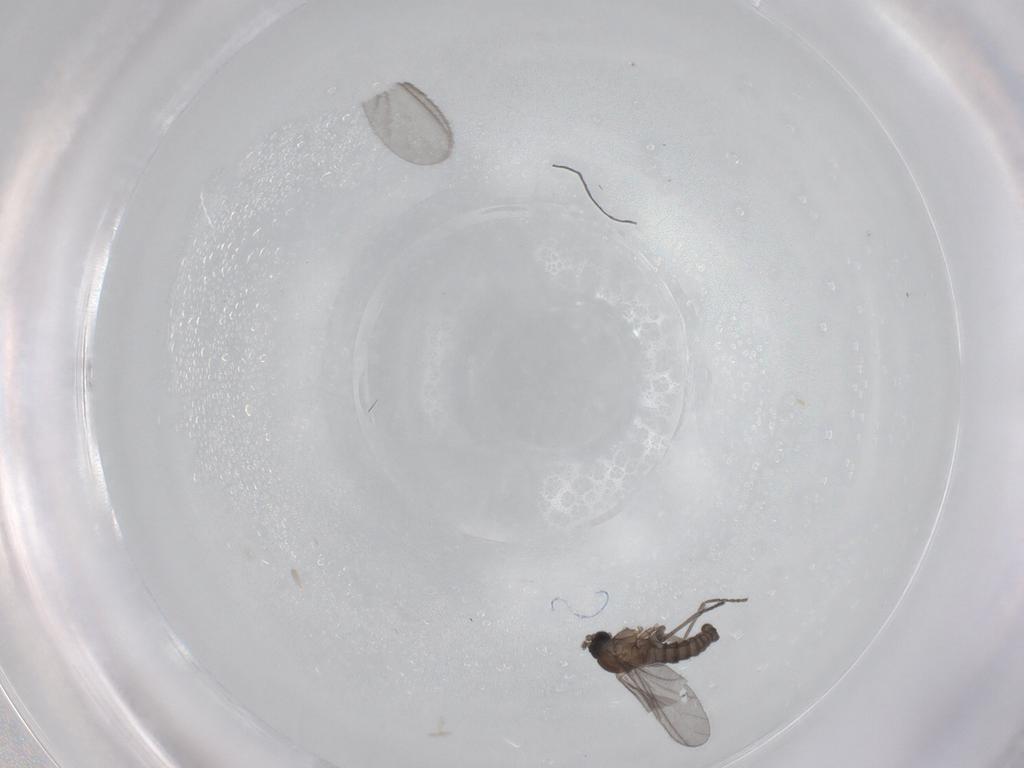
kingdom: Animalia
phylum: Arthropoda
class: Insecta
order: Diptera
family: Sciaridae
